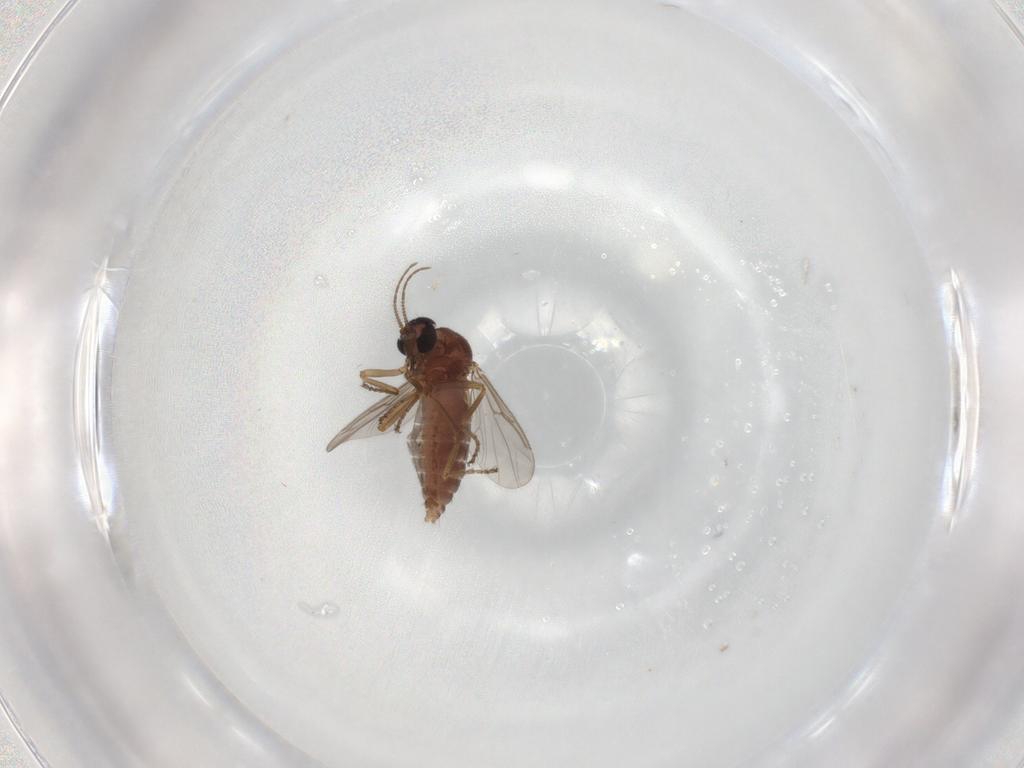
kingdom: Animalia
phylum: Arthropoda
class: Insecta
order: Diptera
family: Ceratopogonidae
